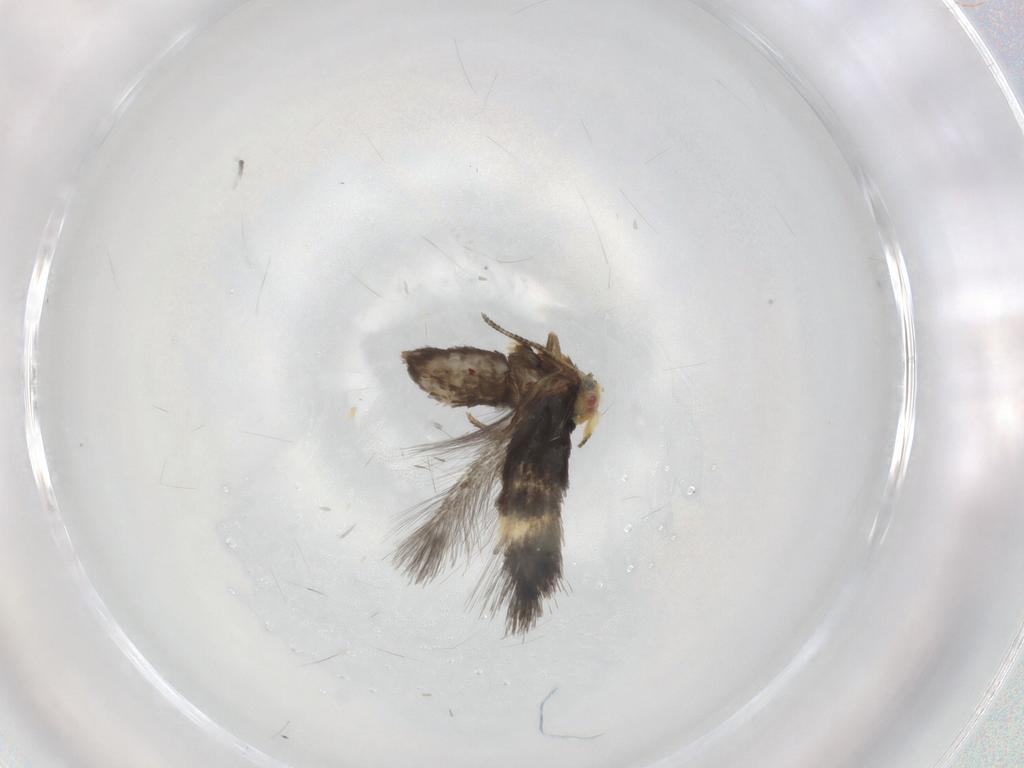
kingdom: Animalia
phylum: Arthropoda
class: Insecta
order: Lepidoptera
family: Nepticulidae
